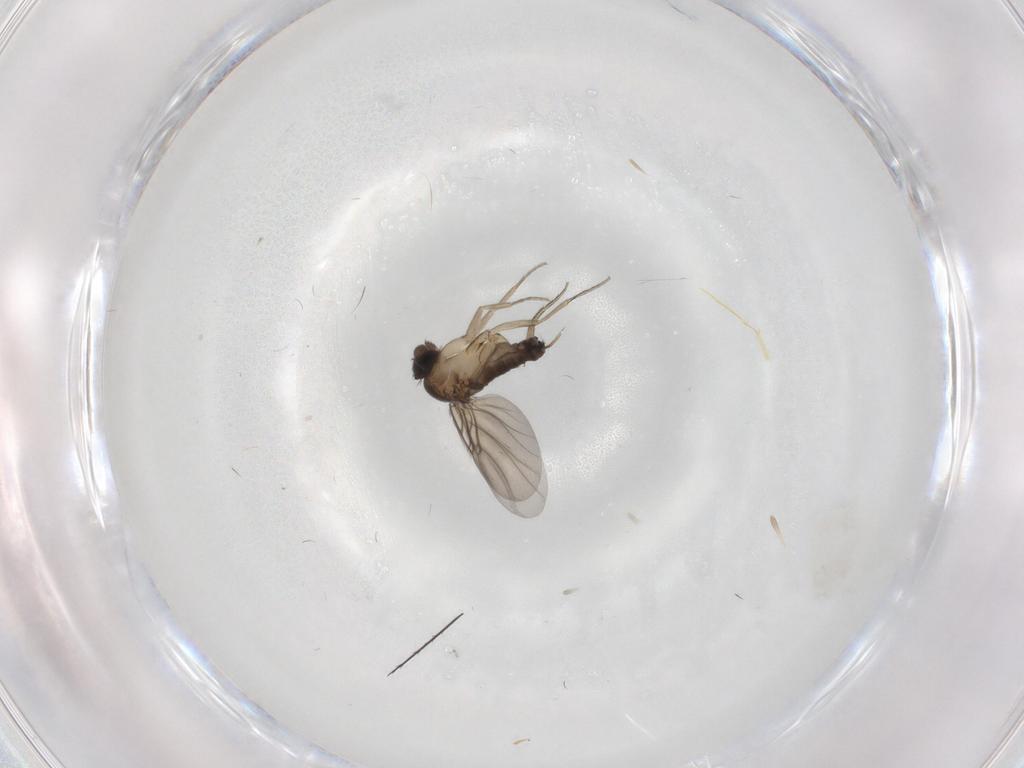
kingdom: Animalia
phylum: Arthropoda
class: Insecta
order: Diptera
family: Phoridae
